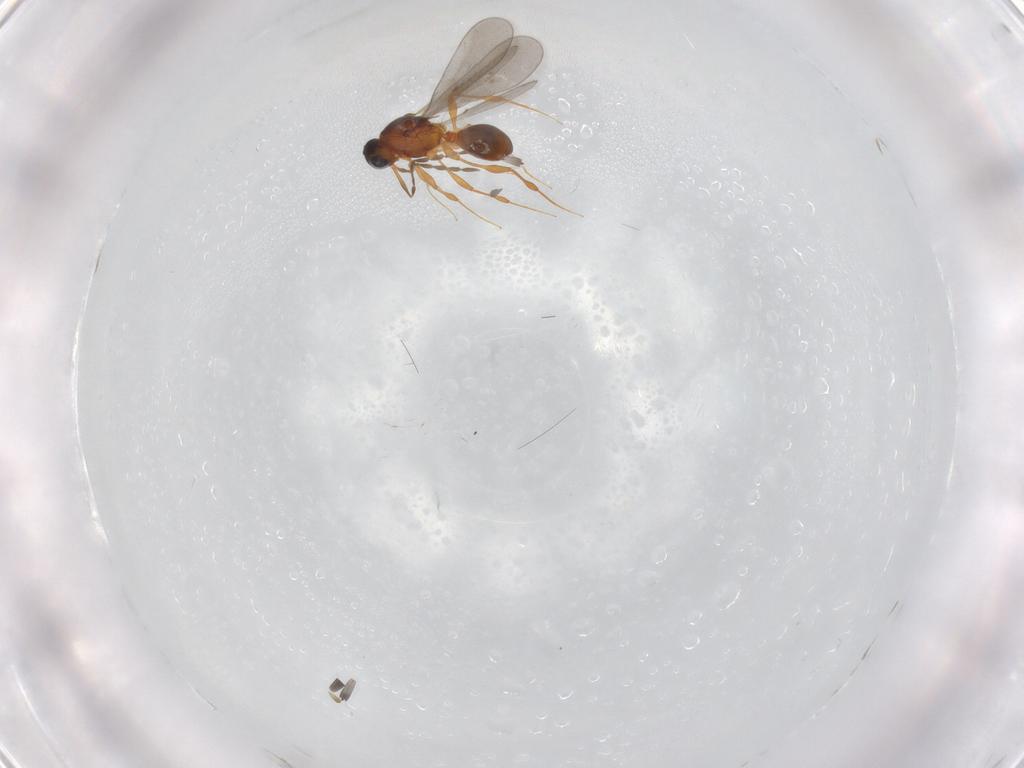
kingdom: Animalia
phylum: Arthropoda
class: Insecta
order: Hymenoptera
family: Platygastridae
